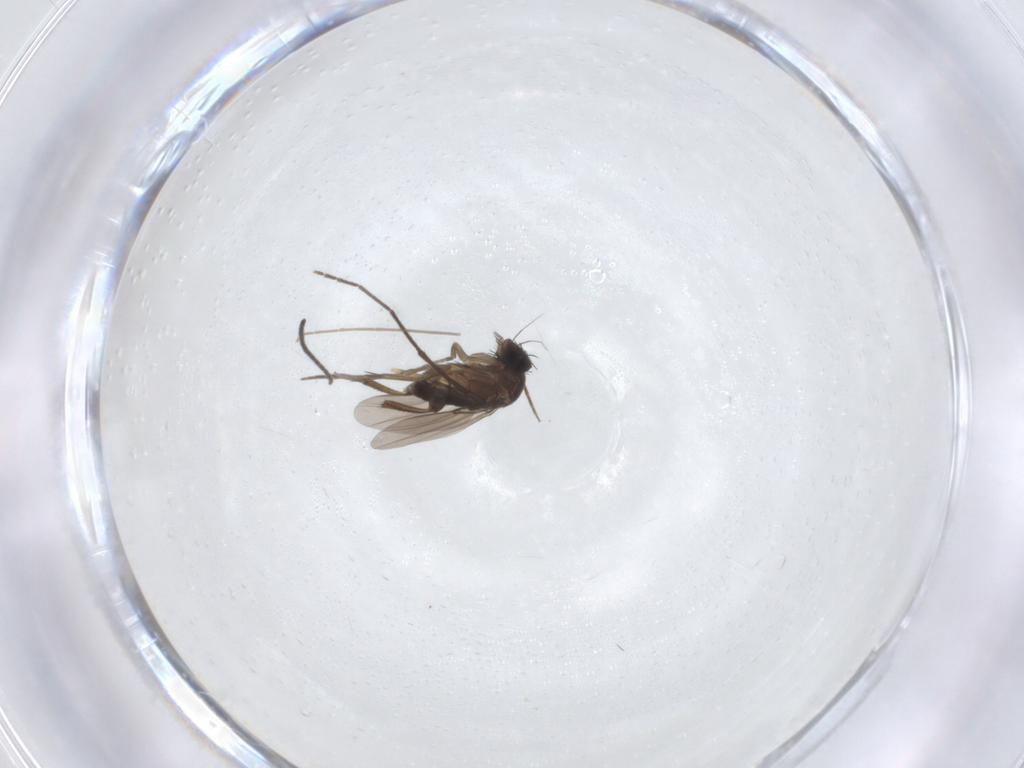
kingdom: Animalia
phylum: Arthropoda
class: Insecta
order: Diptera
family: Phoridae
